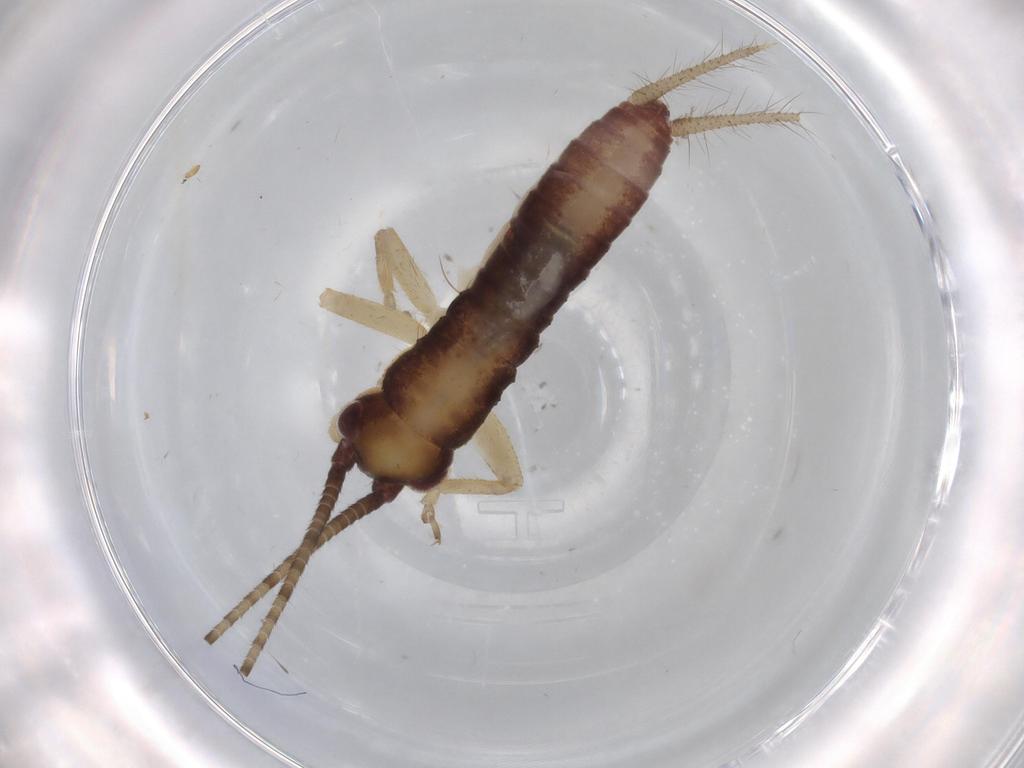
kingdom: Animalia
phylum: Arthropoda
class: Insecta
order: Orthoptera
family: Gryllidae
